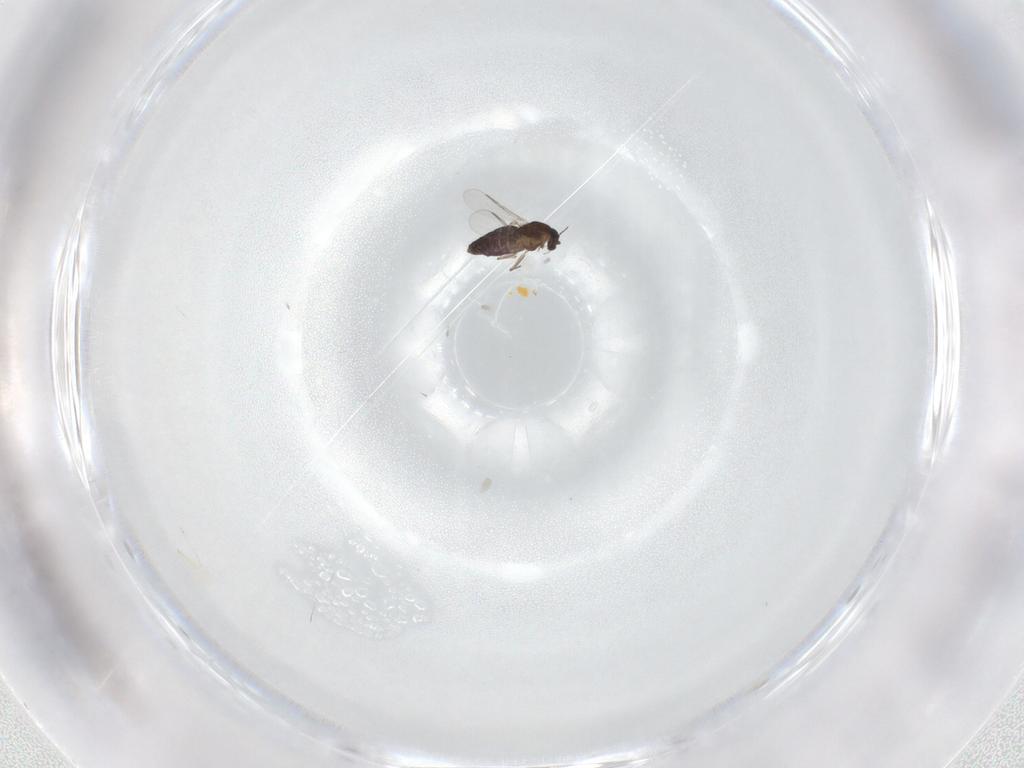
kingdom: Animalia
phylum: Arthropoda
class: Insecta
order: Diptera
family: Chironomidae
